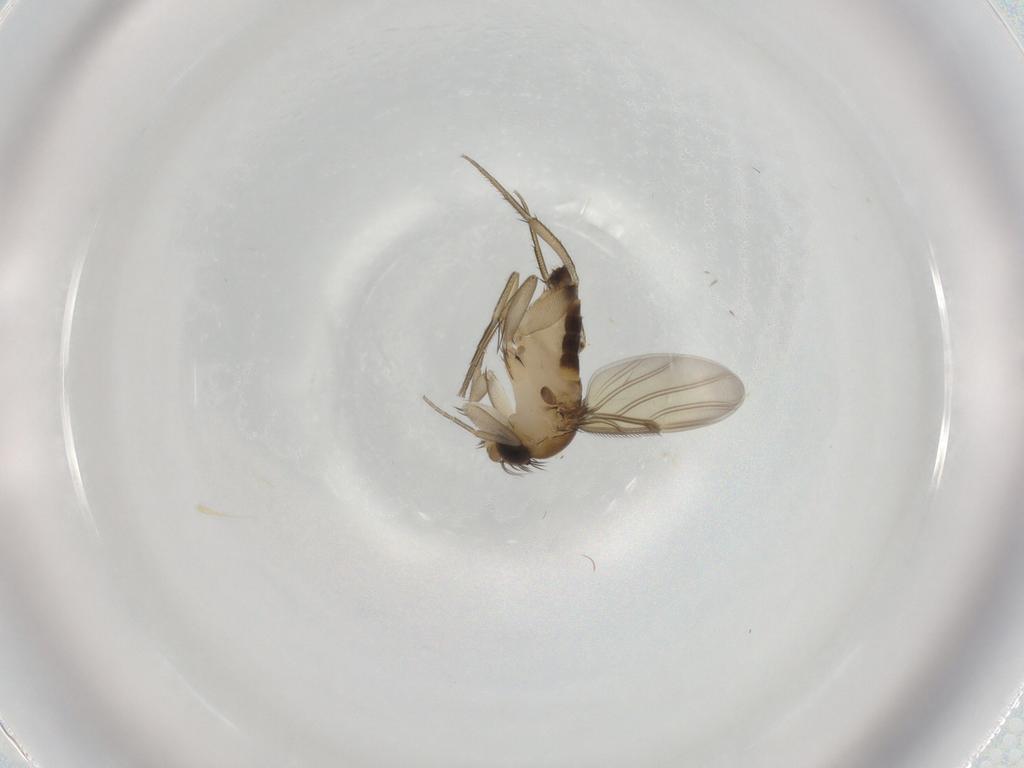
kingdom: Animalia
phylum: Arthropoda
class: Insecta
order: Diptera
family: Phoridae
